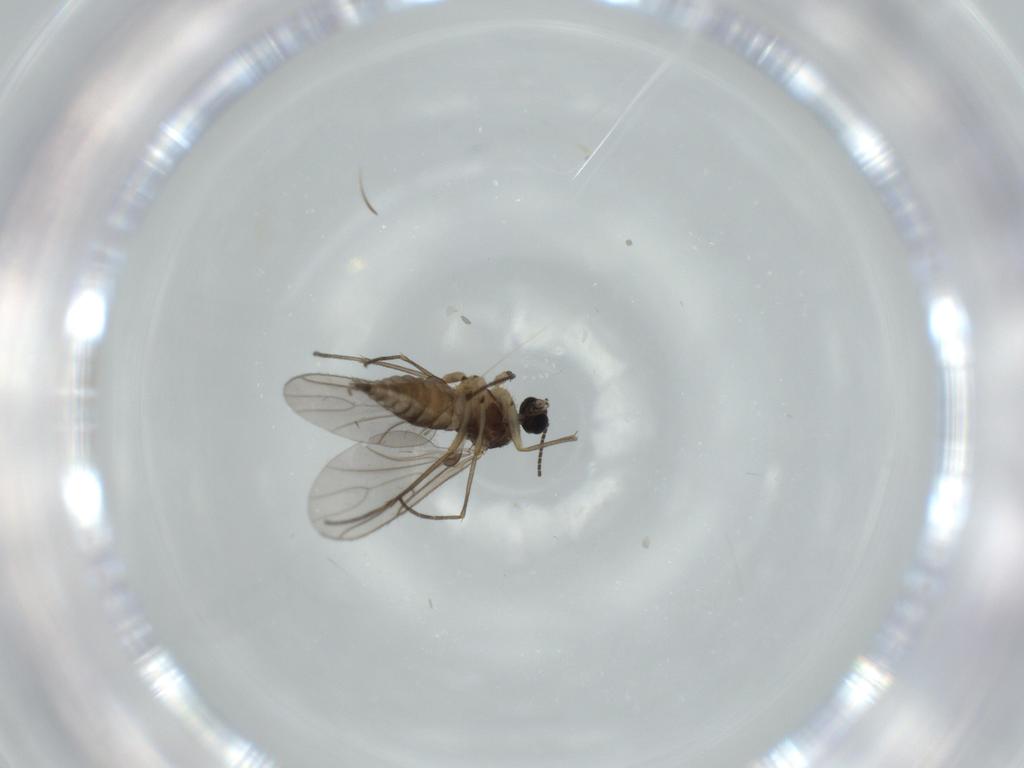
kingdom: Animalia
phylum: Arthropoda
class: Insecta
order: Diptera
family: Sciaridae
